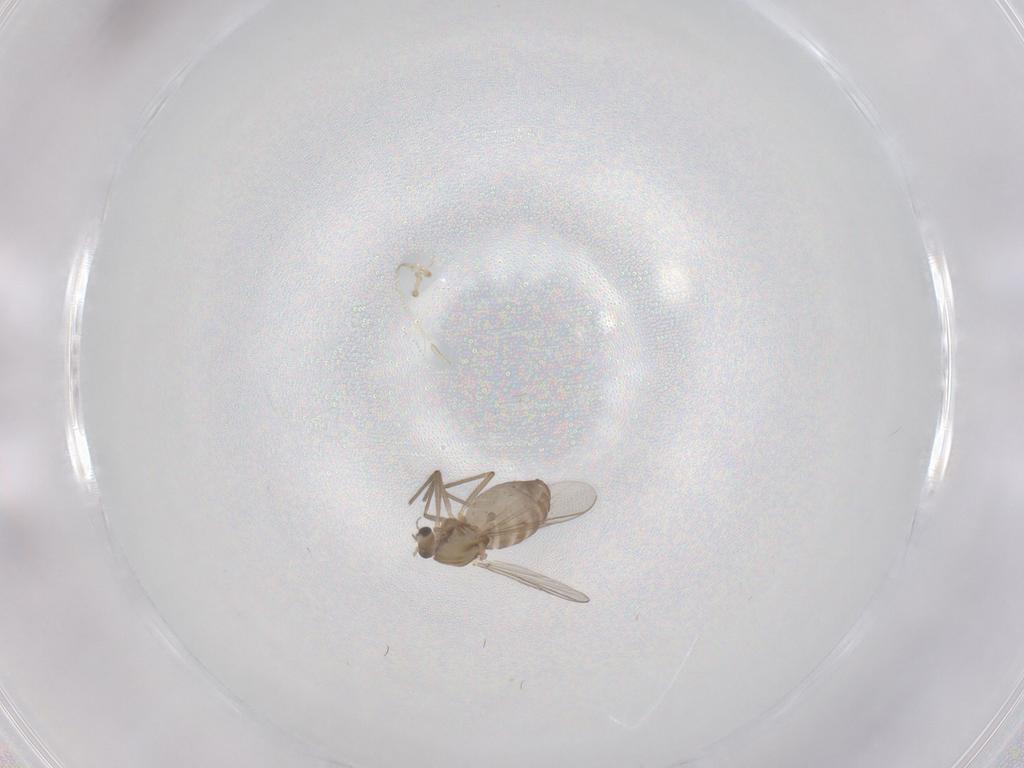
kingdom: Animalia
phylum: Arthropoda
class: Insecta
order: Diptera
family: Chironomidae
